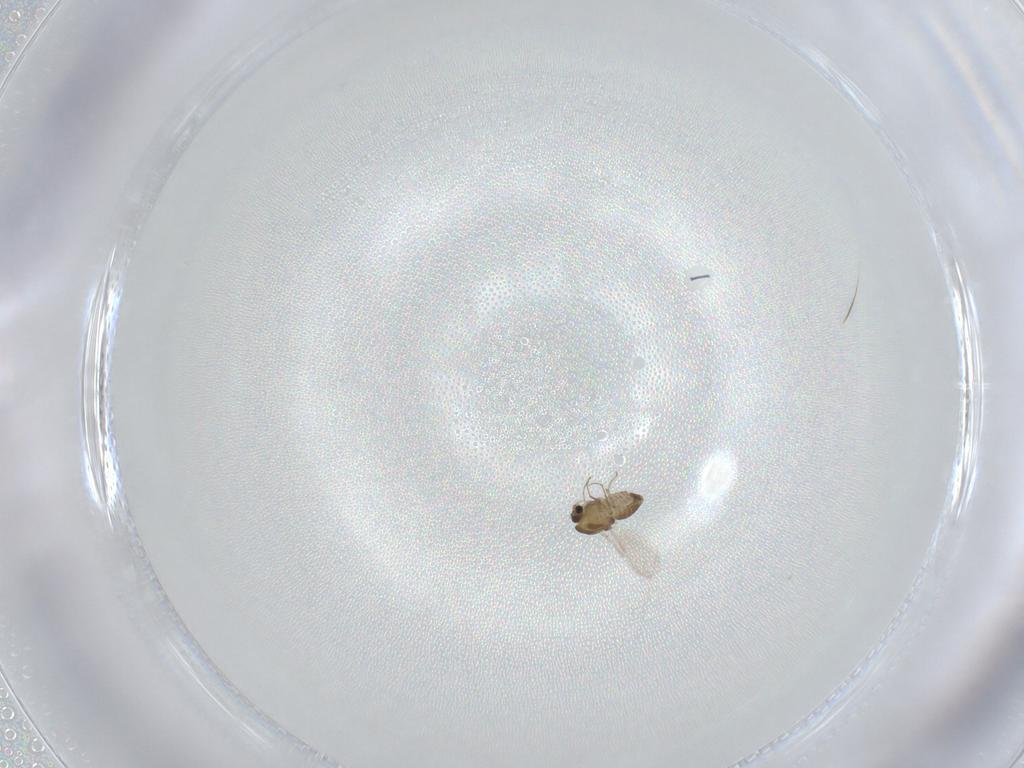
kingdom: Animalia
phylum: Arthropoda
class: Insecta
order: Diptera
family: Chironomidae
